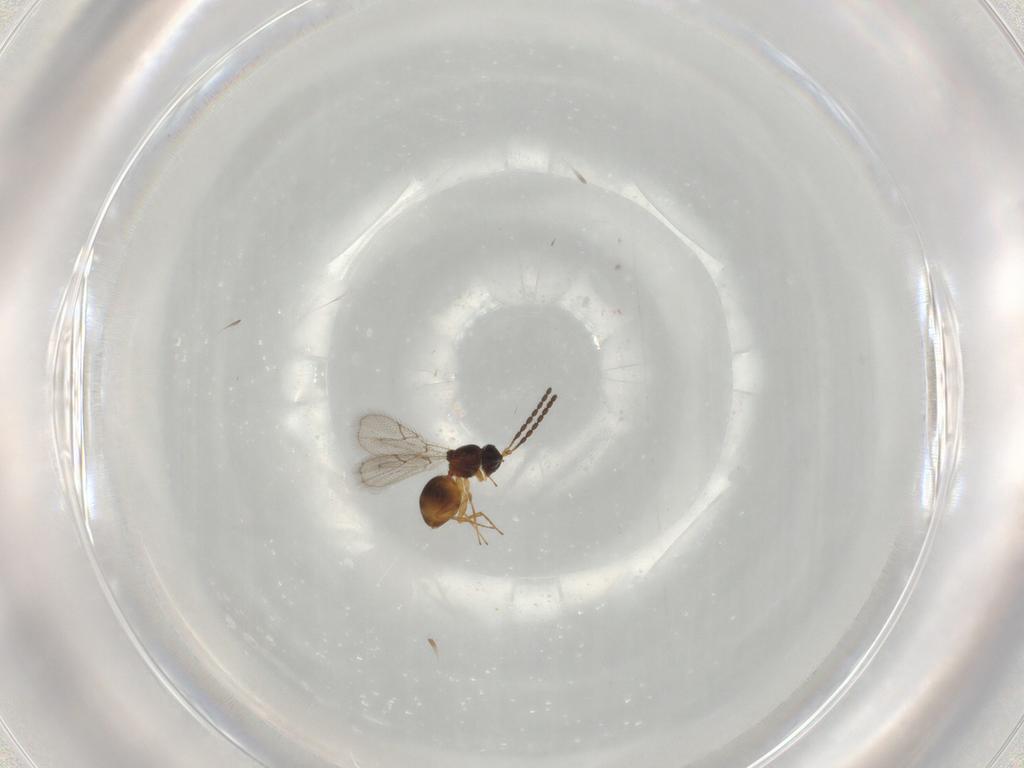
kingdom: Animalia
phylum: Arthropoda
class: Insecta
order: Hymenoptera
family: Figitidae
